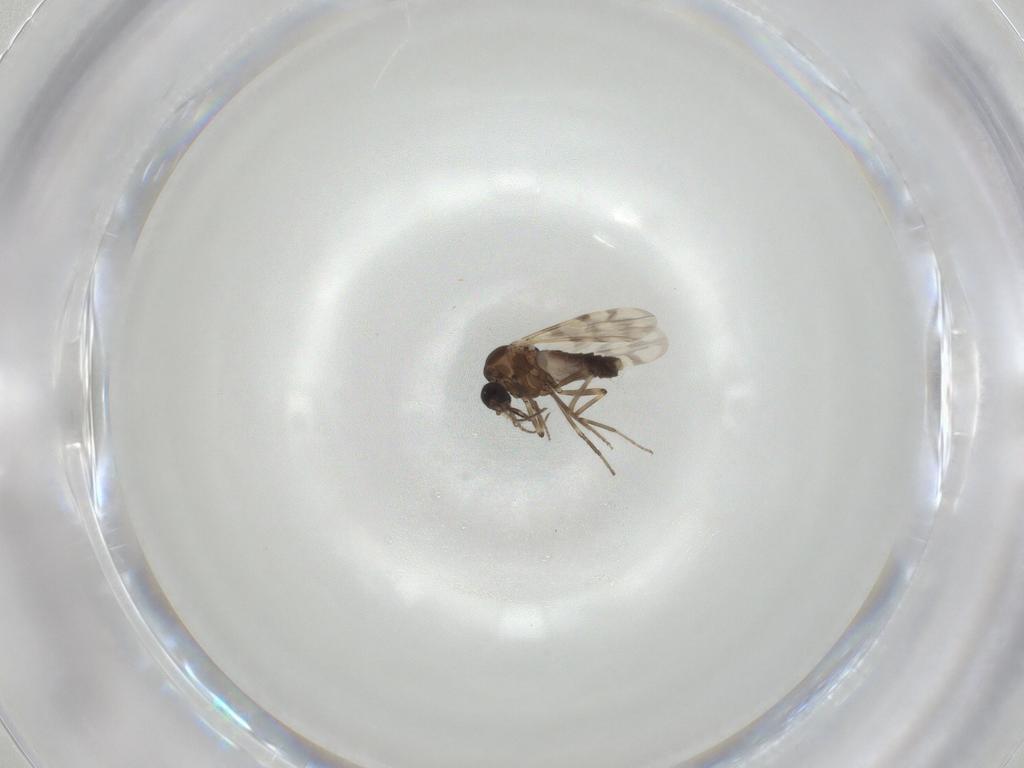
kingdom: Animalia
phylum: Arthropoda
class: Insecta
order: Diptera
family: Ceratopogonidae
